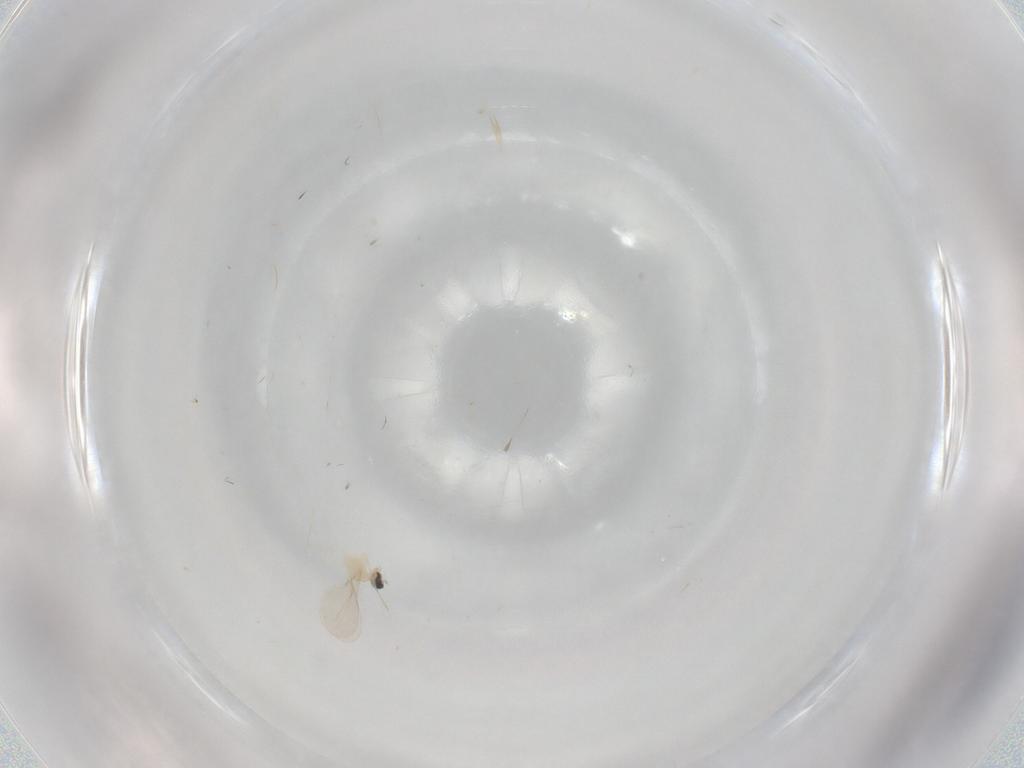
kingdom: Animalia
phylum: Arthropoda
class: Insecta
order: Diptera
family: Cecidomyiidae
